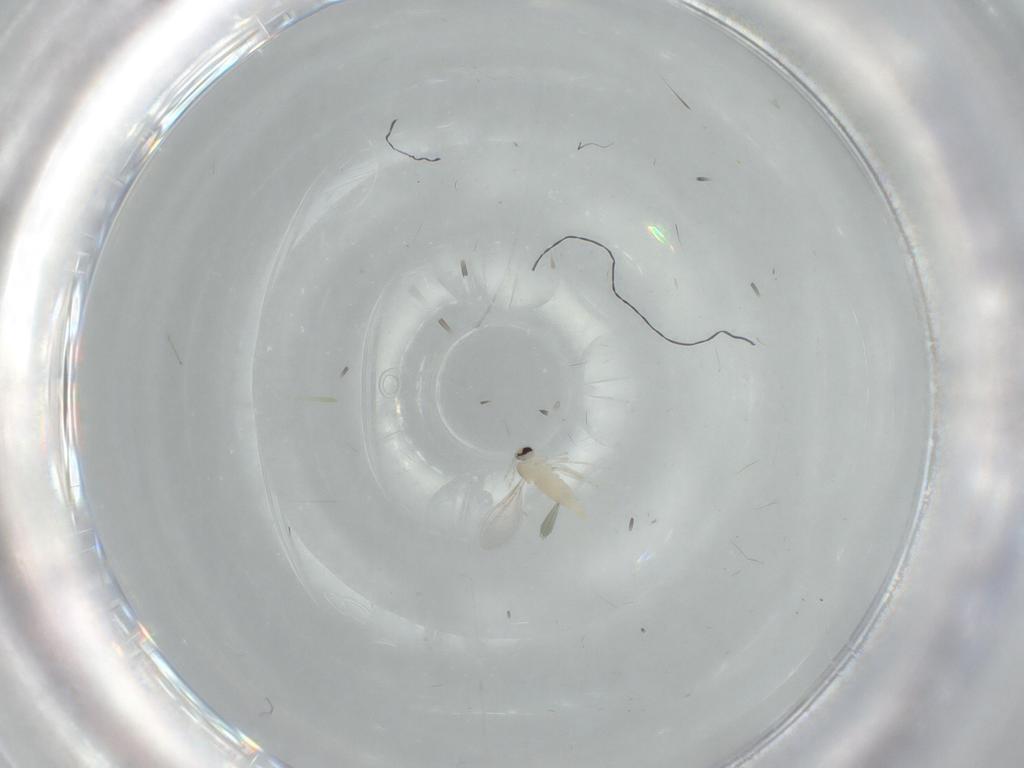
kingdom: Animalia
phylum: Arthropoda
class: Insecta
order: Diptera
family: Cecidomyiidae
